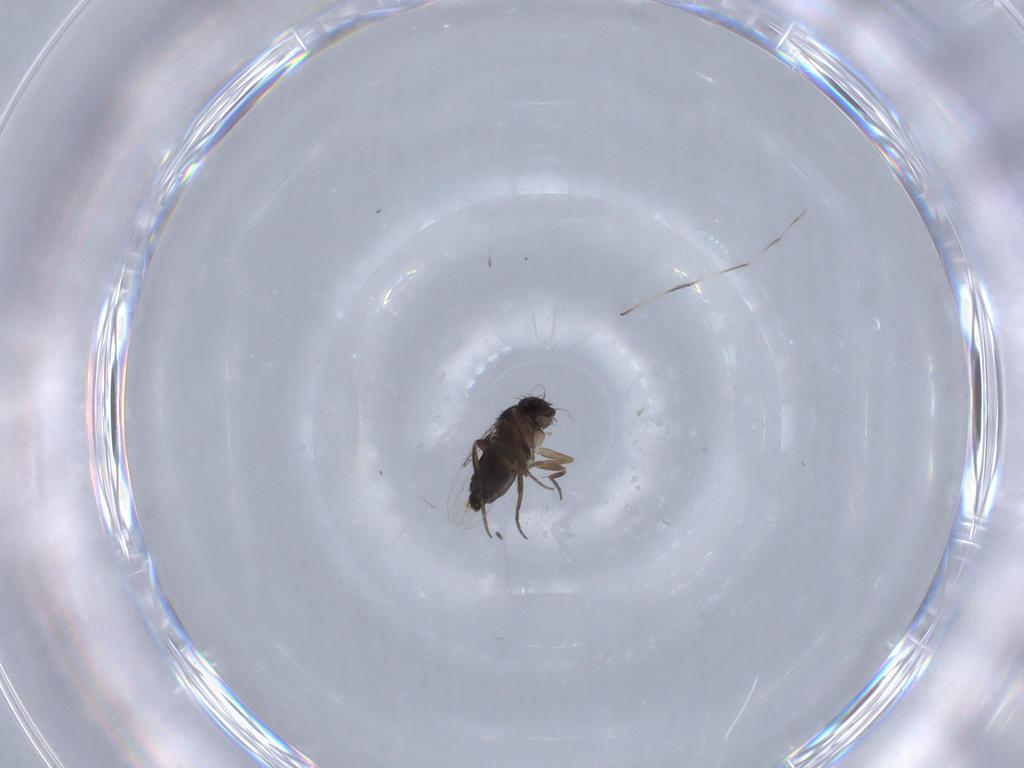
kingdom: Animalia
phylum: Arthropoda
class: Insecta
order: Diptera
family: Phoridae
